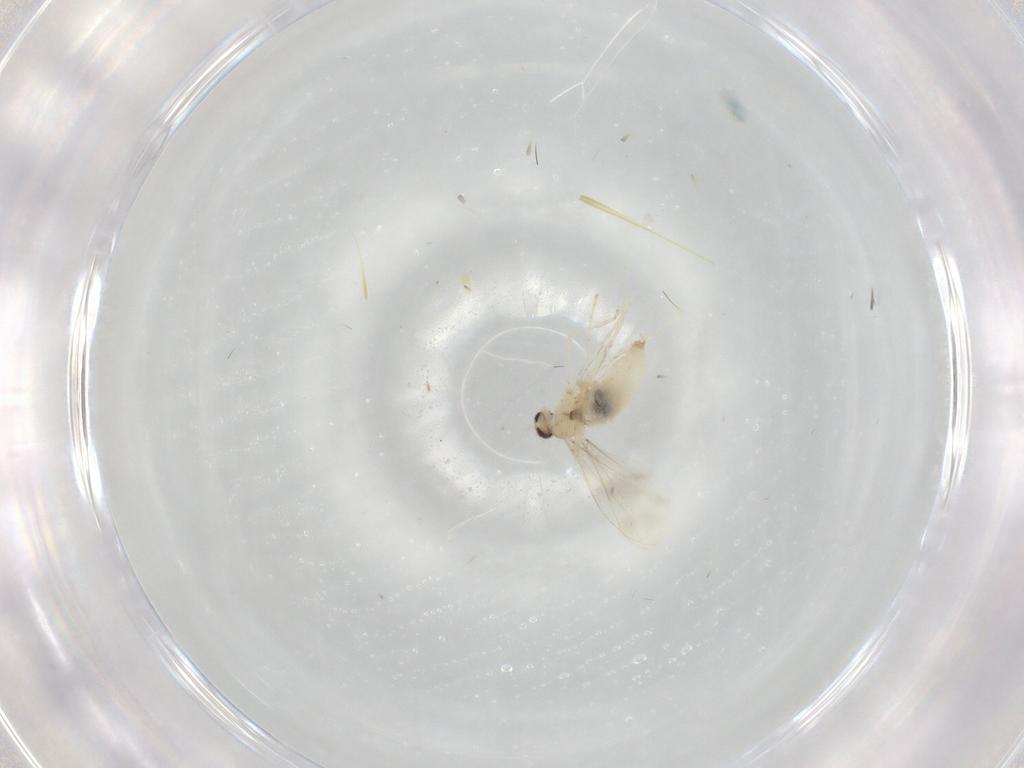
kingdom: Animalia
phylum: Arthropoda
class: Insecta
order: Diptera
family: Cecidomyiidae
